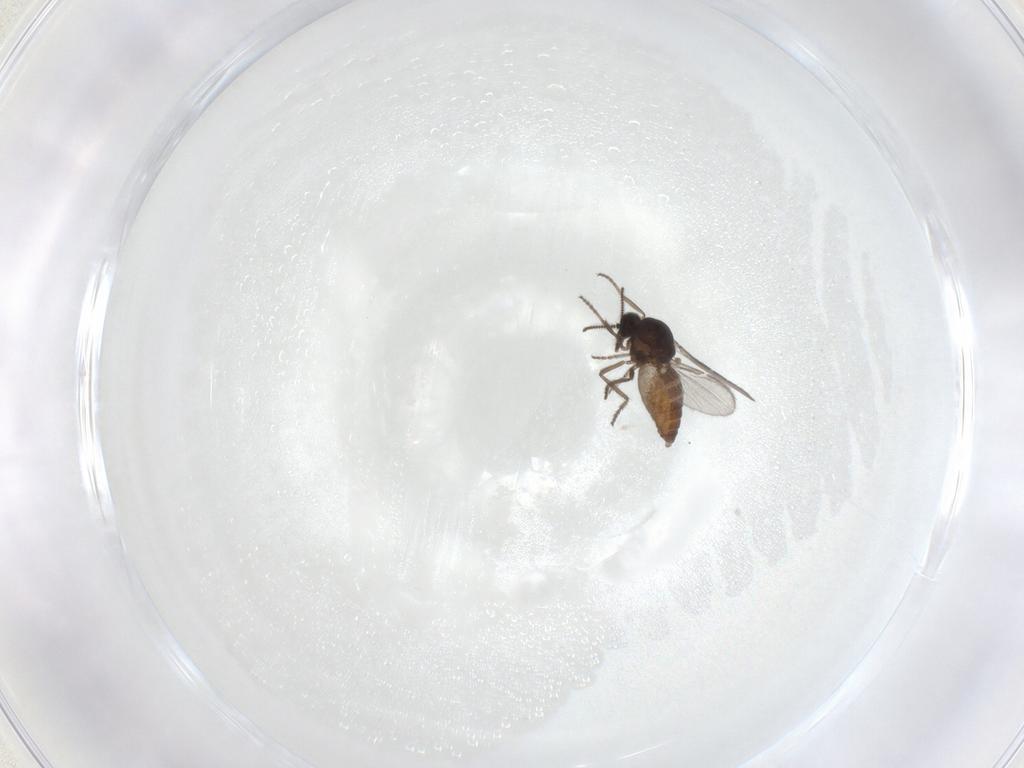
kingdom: Animalia
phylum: Arthropoda
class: Insecta
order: Diptera
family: Ceratopogonidae
